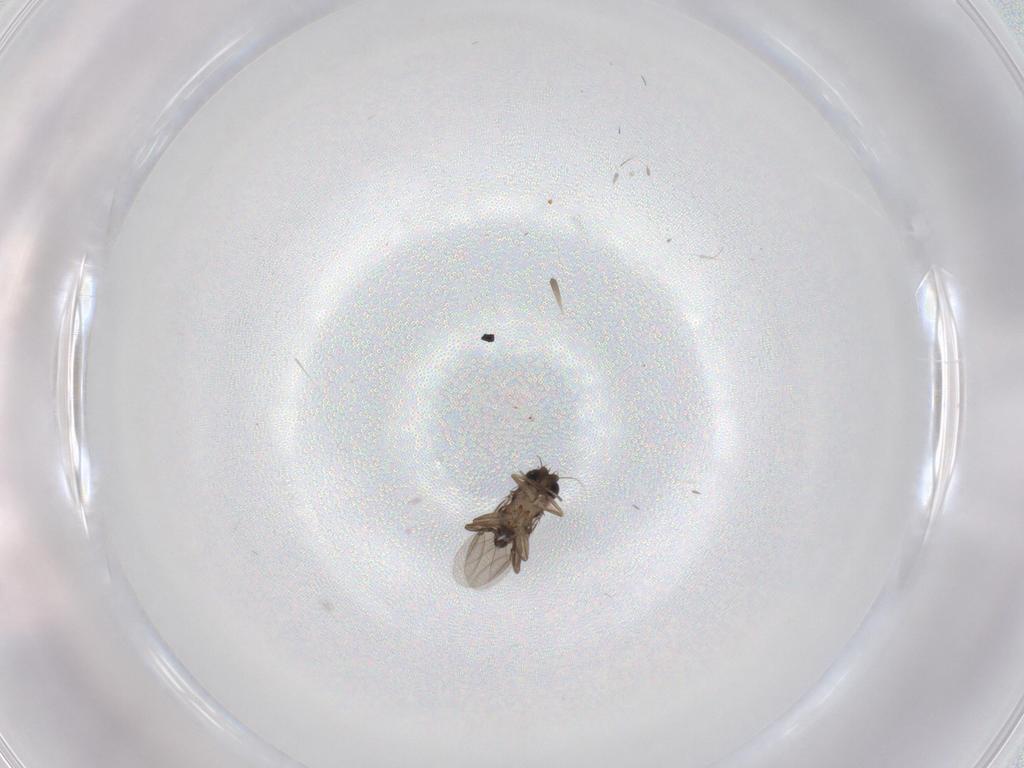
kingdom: Animalia
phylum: Arthropoda
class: Insecta
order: Diptera
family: Phoridae
